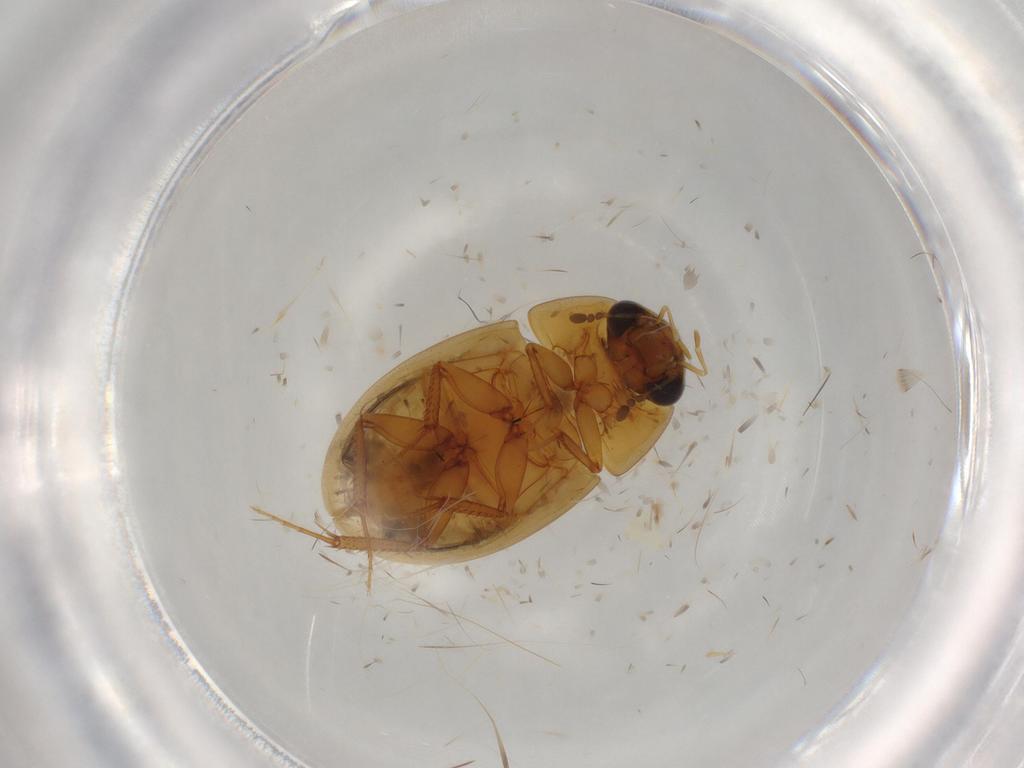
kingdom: Animalia
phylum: Arthropoda
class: Insecta
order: Coleoptera
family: Hydrophilidae
